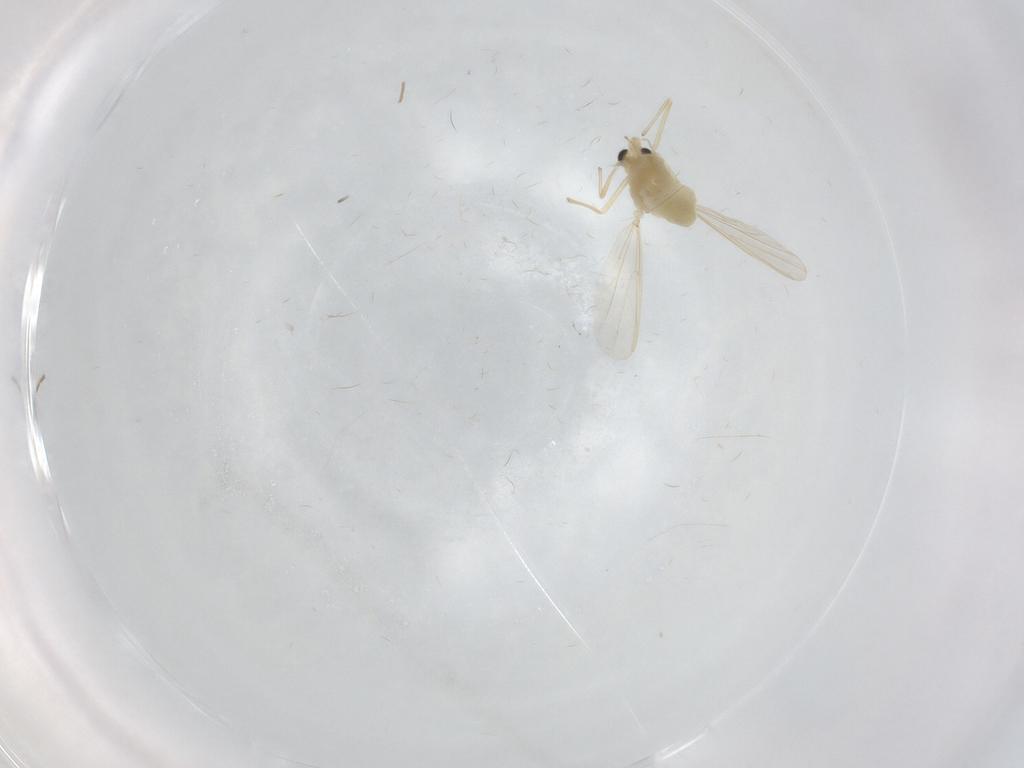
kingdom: Animalia
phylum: Arthropoda
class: Insecta
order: Diptera
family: Chironomidae
